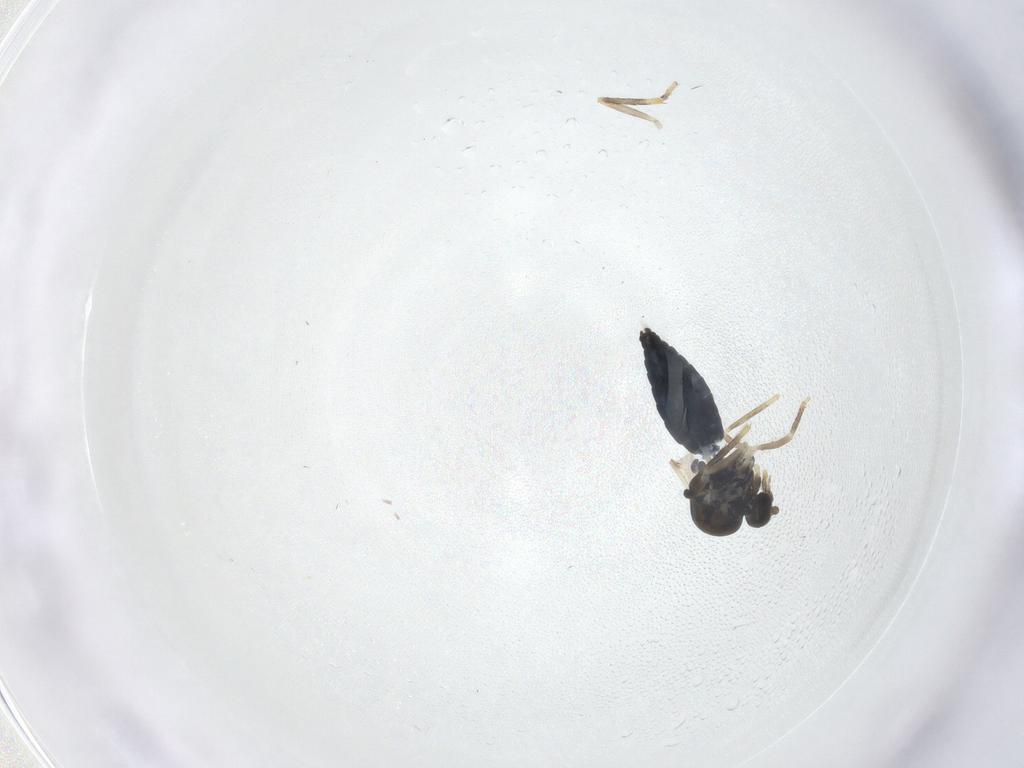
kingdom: Animalia
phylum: Arthropoda
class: Insecta
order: Diptera
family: Ceratopogonidae
